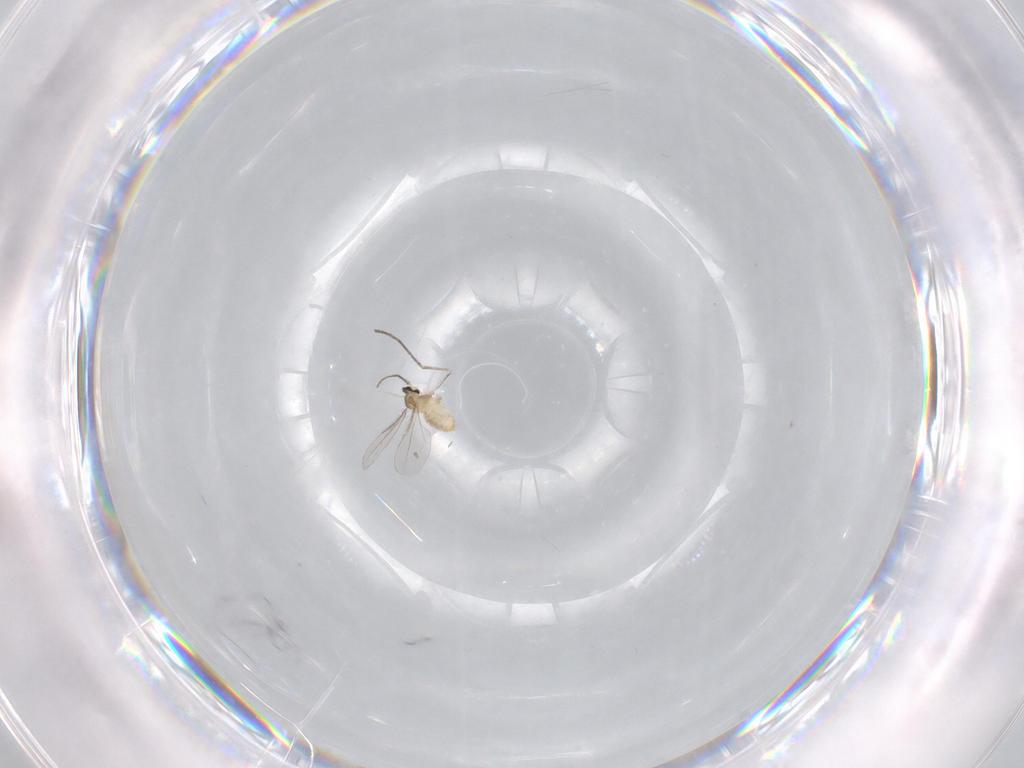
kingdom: Animalia
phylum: Arthropoda
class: Insecta
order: Diptera
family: Cecidomyiidae
